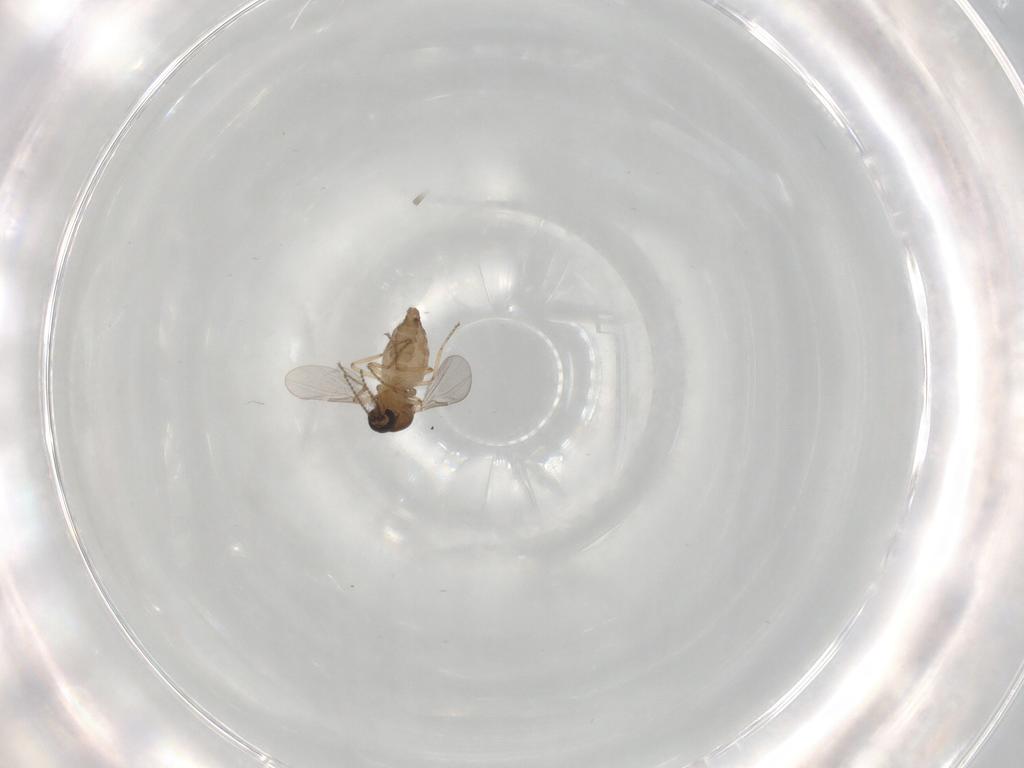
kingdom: Animalia
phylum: Arthropoda
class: Insecta
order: Diptera
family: Ceratopogonidae
